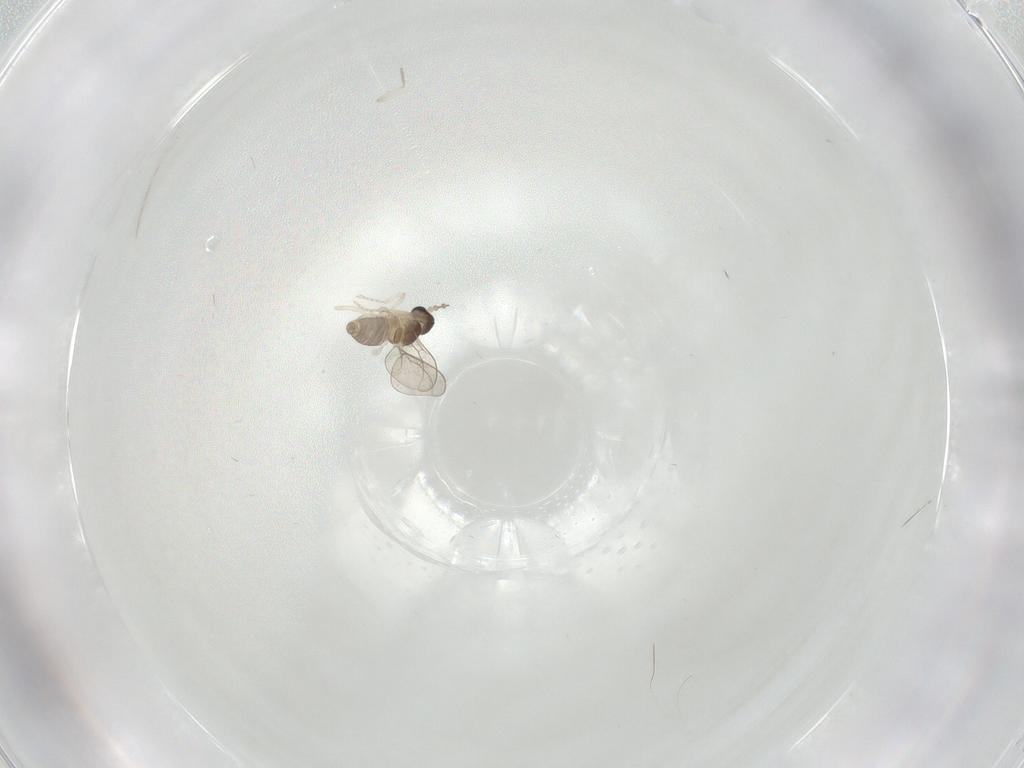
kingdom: Animalia
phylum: Arthropoda
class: Insecta
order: Diptera
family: Cecidomyiidae
